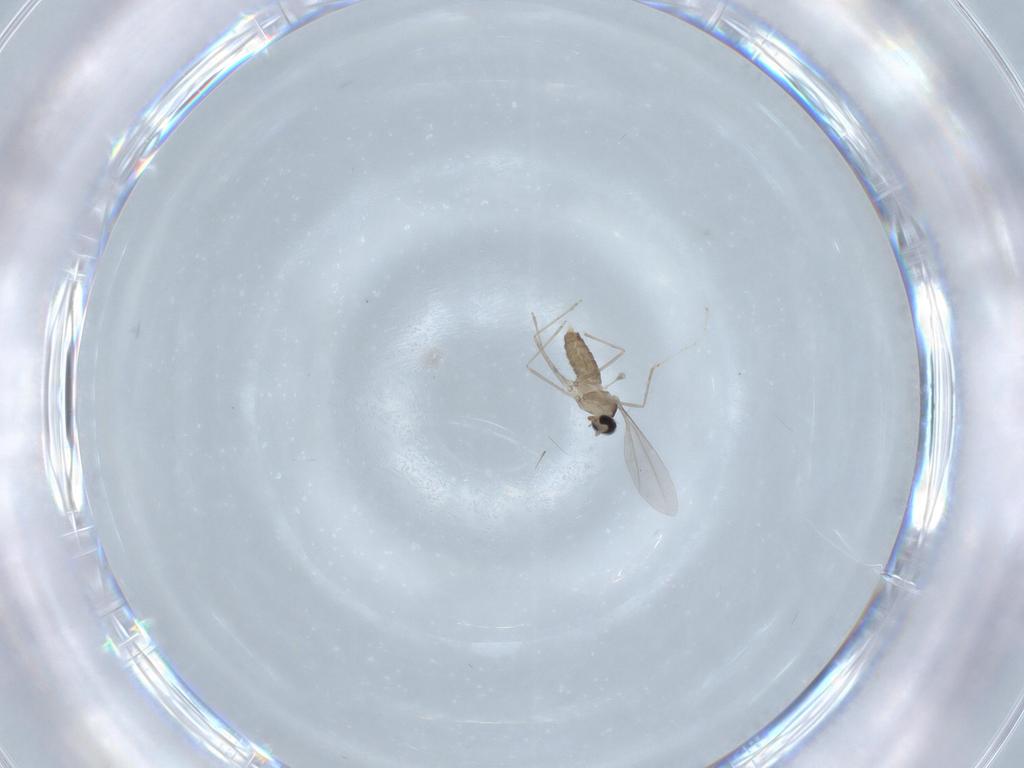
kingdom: Animalia
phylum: Arthropoda
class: Insecta
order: Diptera
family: Cecidomyiidae
